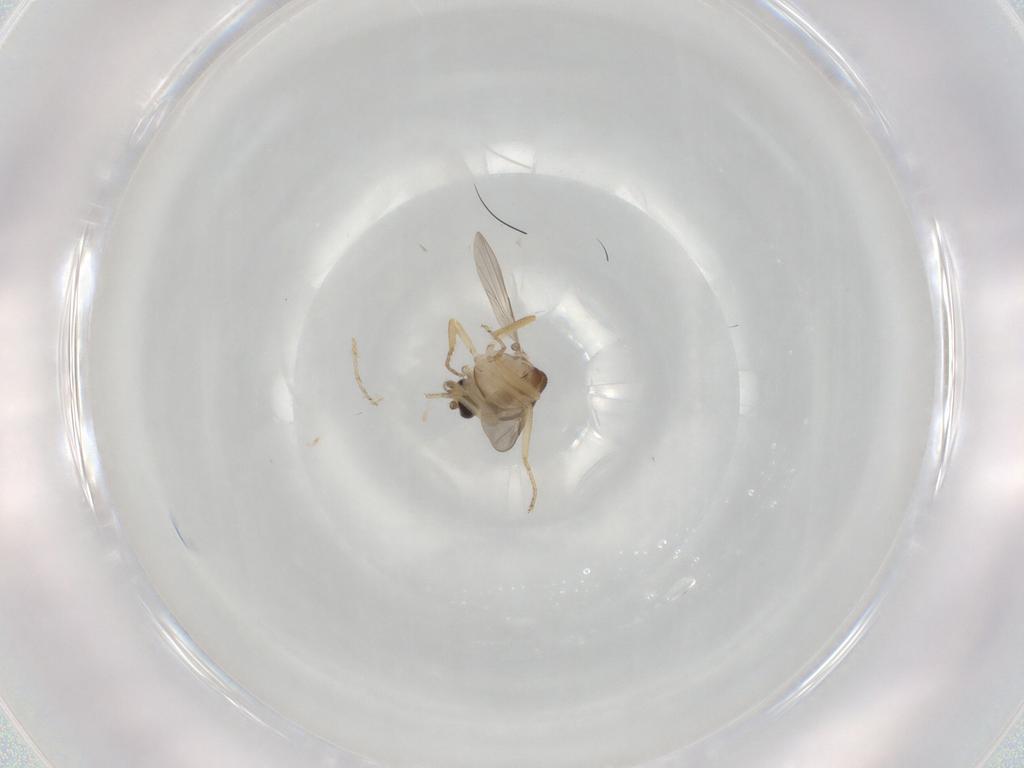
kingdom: Animalia
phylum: Arthropoda
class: Insecta
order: Diptera
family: Ceratopogonidae
